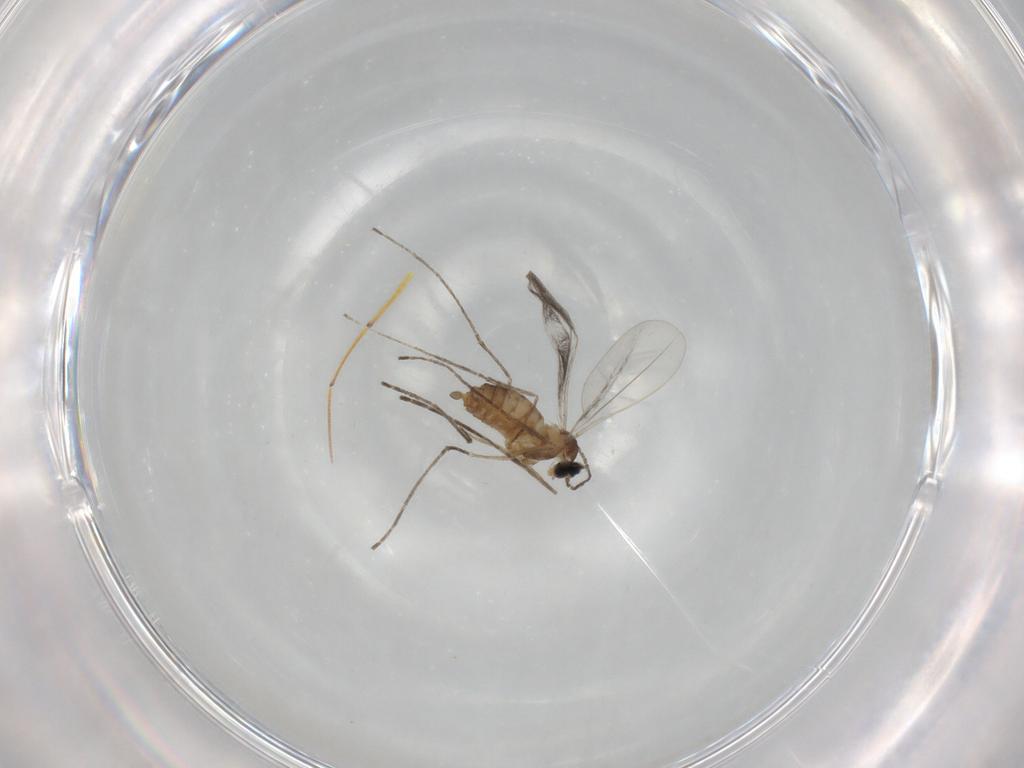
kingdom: Animalia
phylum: Arthropoda
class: Insecta
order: Diptera
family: Cecidomyiidae
